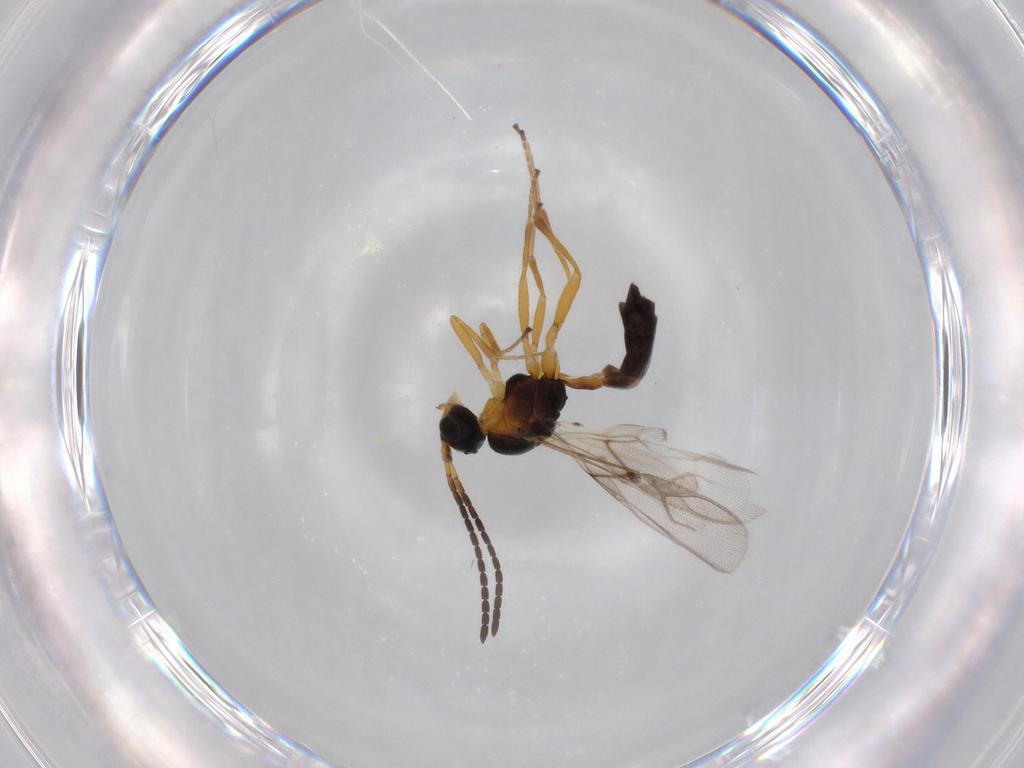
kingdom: Animalia
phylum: Arthropoda
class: Insecta
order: Hymenoptera
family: Braconidae
